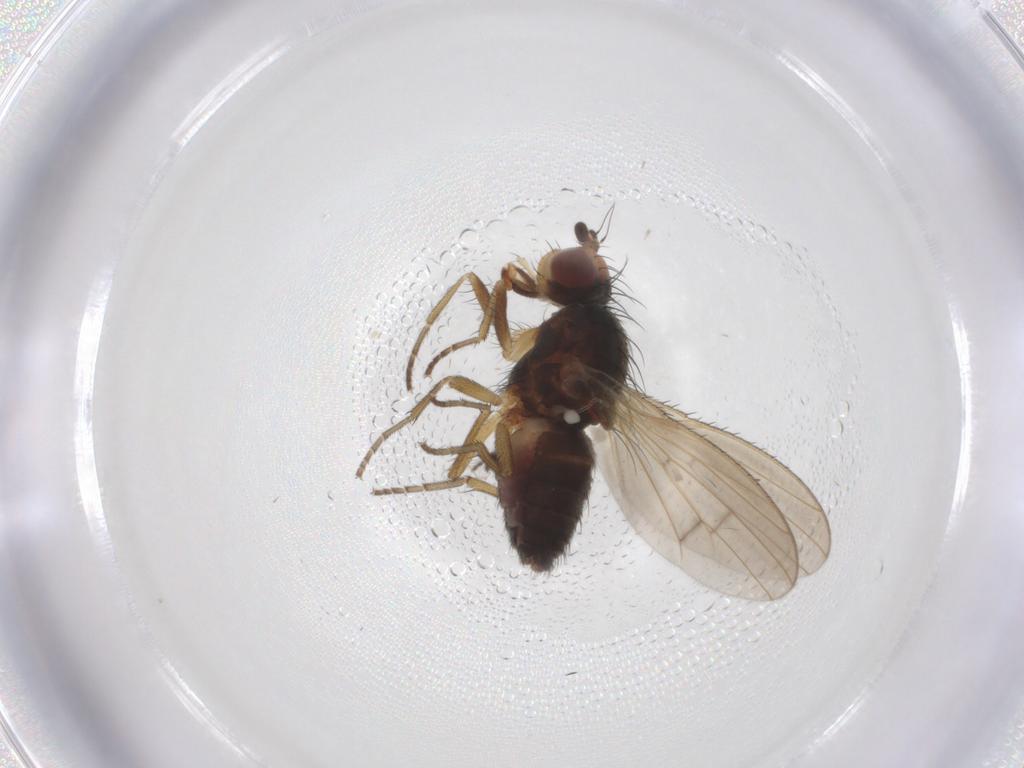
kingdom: Animalia
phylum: Arthropoda
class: Insecta
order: Diptera
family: Heleomyzidae
